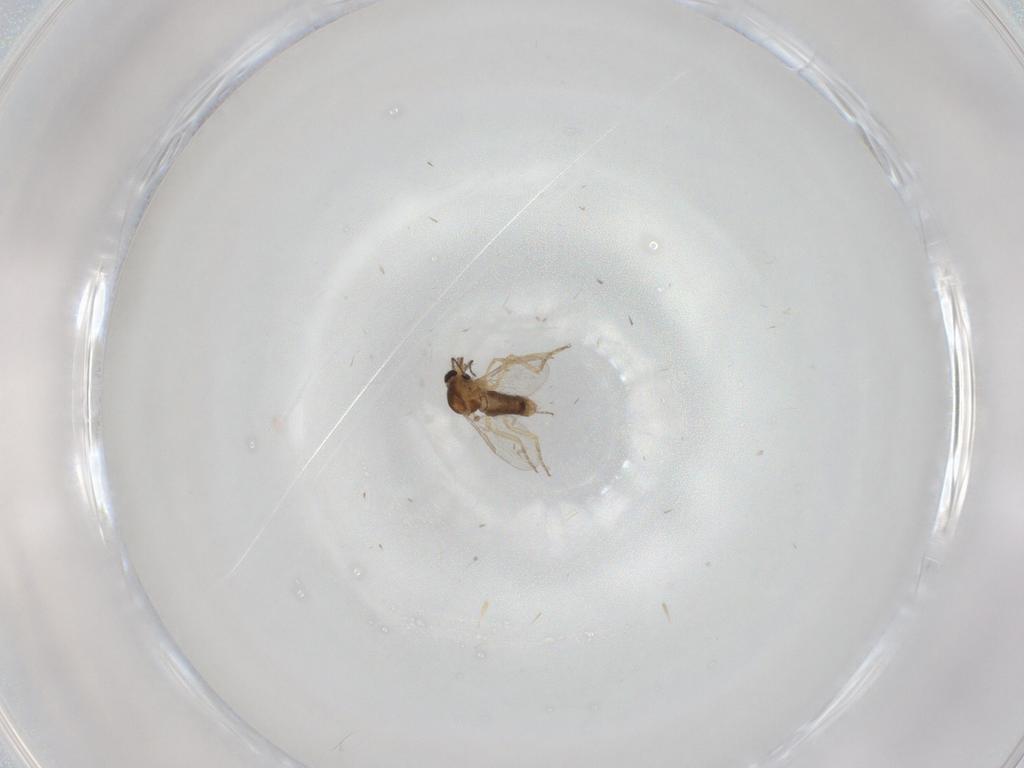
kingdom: Animalia
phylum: Arthropoda
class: Insecta
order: Diptera
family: Ceratopogonidae
